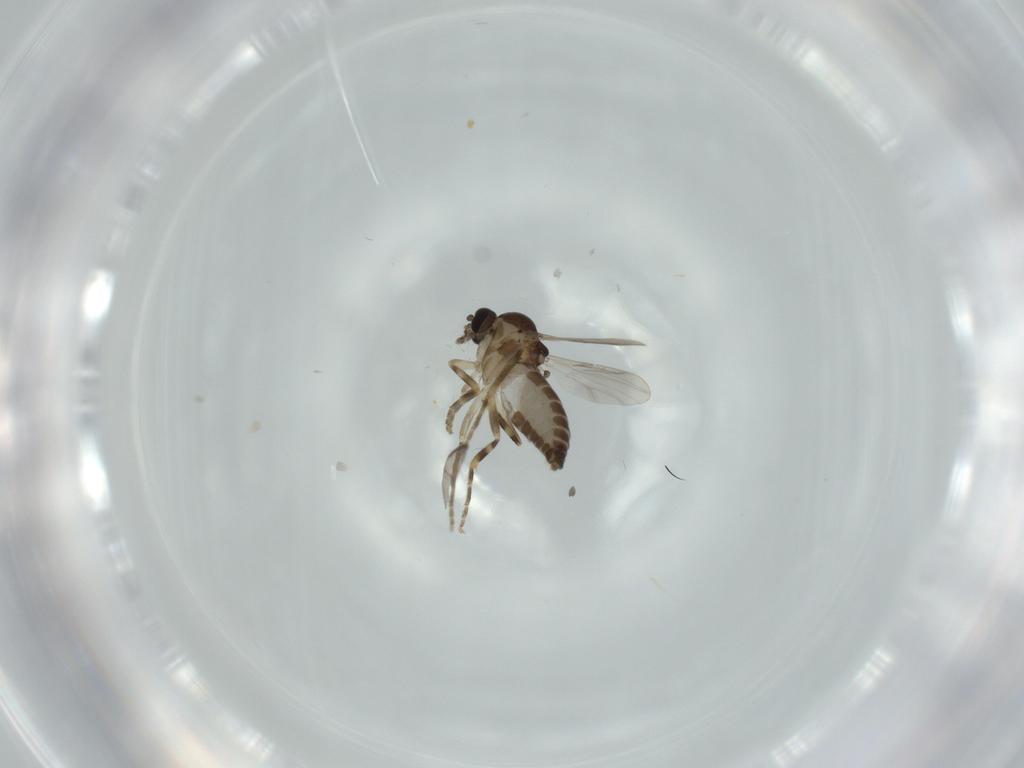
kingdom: Animalia
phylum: Arthropoda
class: Insecta
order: Diptera
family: Ceratopogonidae
